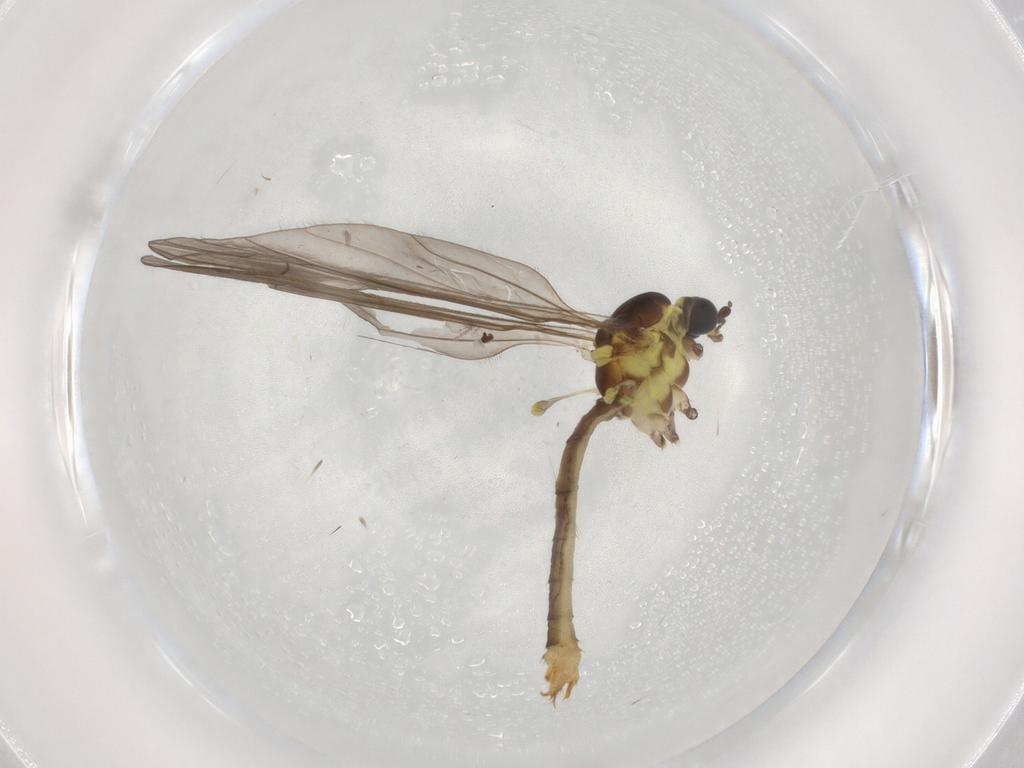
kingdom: Animalia
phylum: Arthropoda
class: Insecta
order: Diptera
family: Limoniidae
